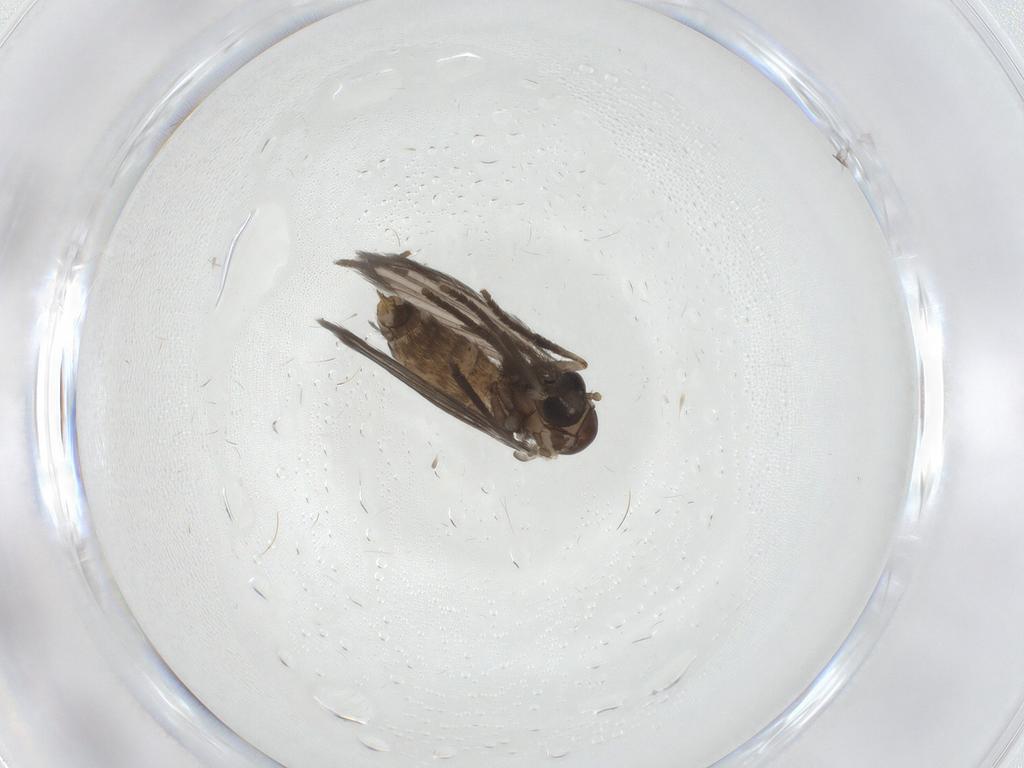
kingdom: Animalia
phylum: Arthropoda
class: Insecta
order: Diptera
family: Psychodidae
